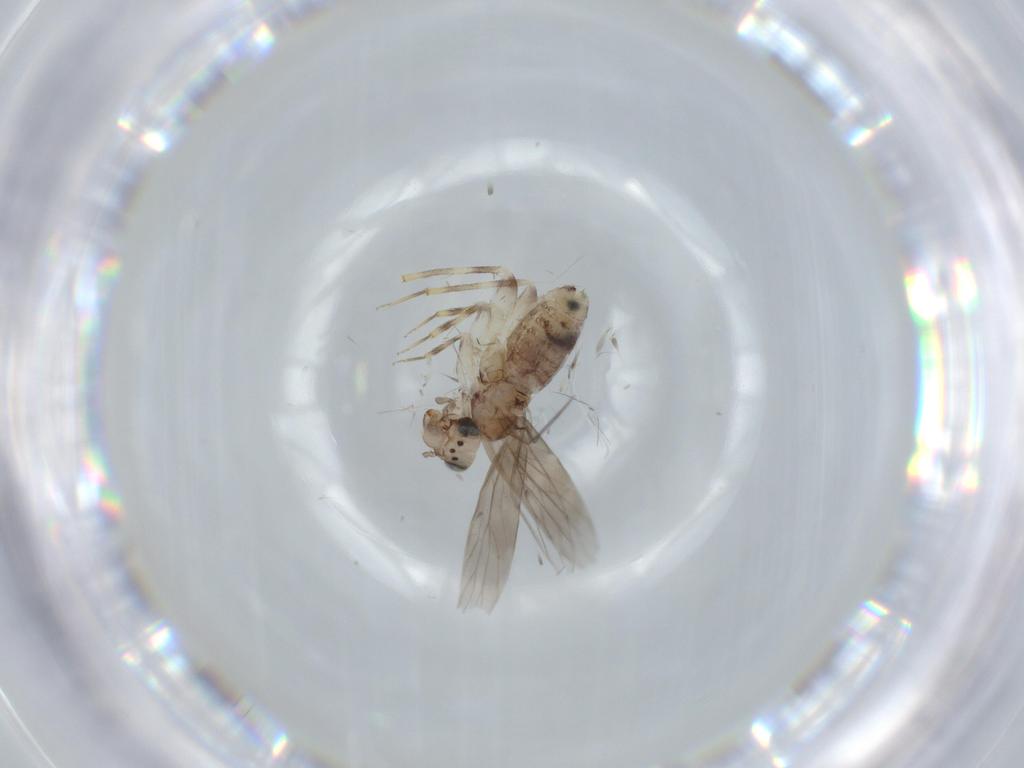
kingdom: Animalia
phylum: Arthropoda
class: Insecta
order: Psocodea
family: Lepidopsocidae
